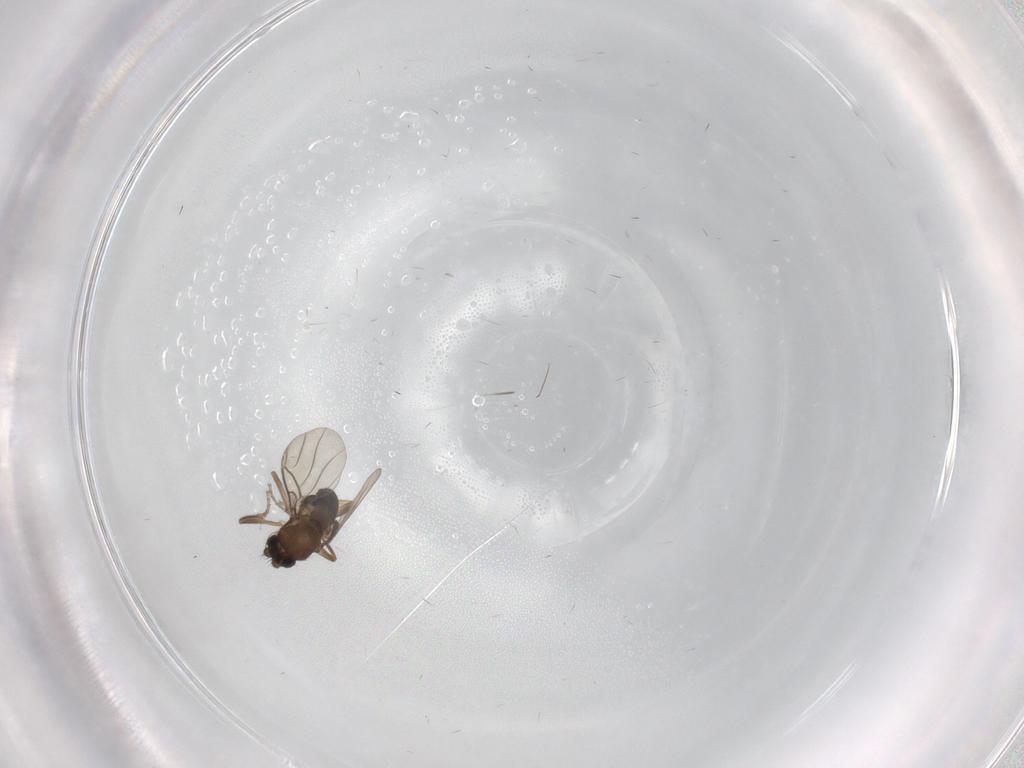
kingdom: Animalia
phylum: Arthropoda
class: Insecta
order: Diptera
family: Phoridae
